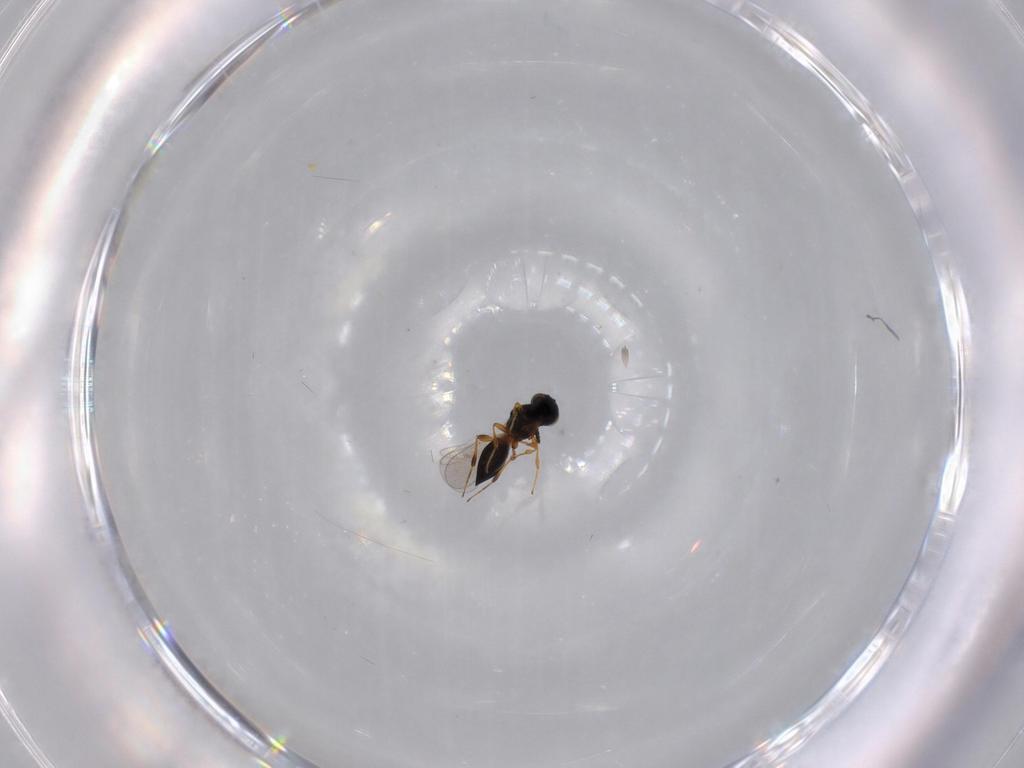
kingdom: Animalia
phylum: Arthropoda
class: Insecta
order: Hymenoptera
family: Platygastridae
